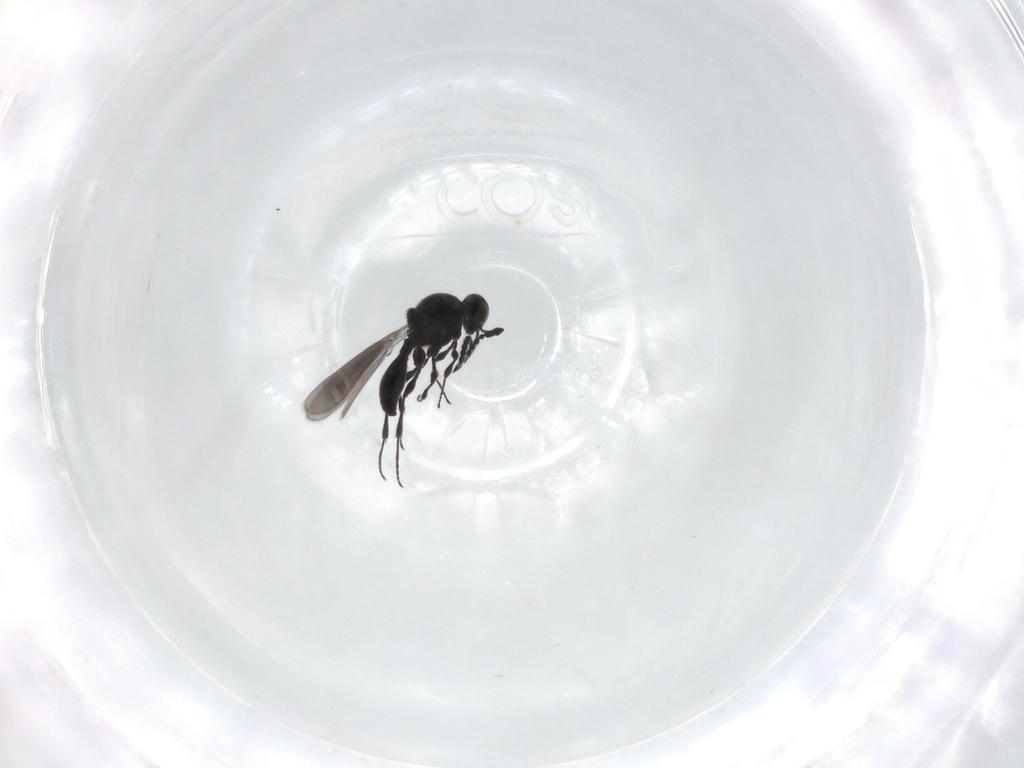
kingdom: Animalia
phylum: Arthropoda
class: Insecta
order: Hymenoptera
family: Platygastridae
